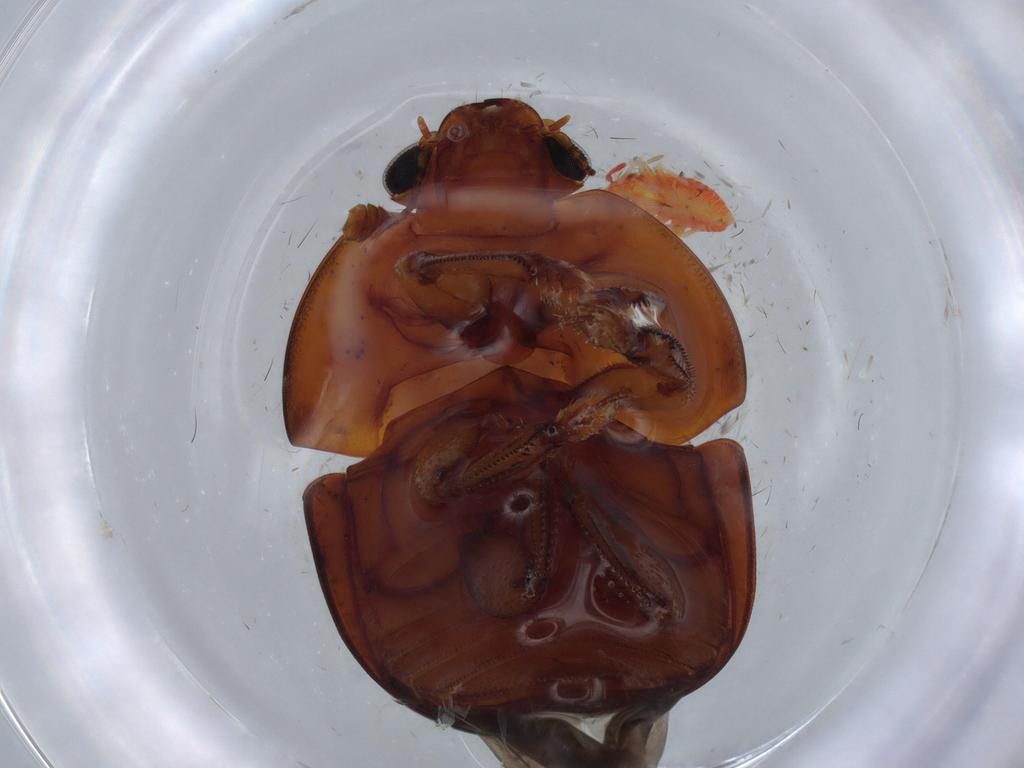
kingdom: Animalia
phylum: Arthropoda
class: Insecta
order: Coleoptera
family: Nitidulidae
